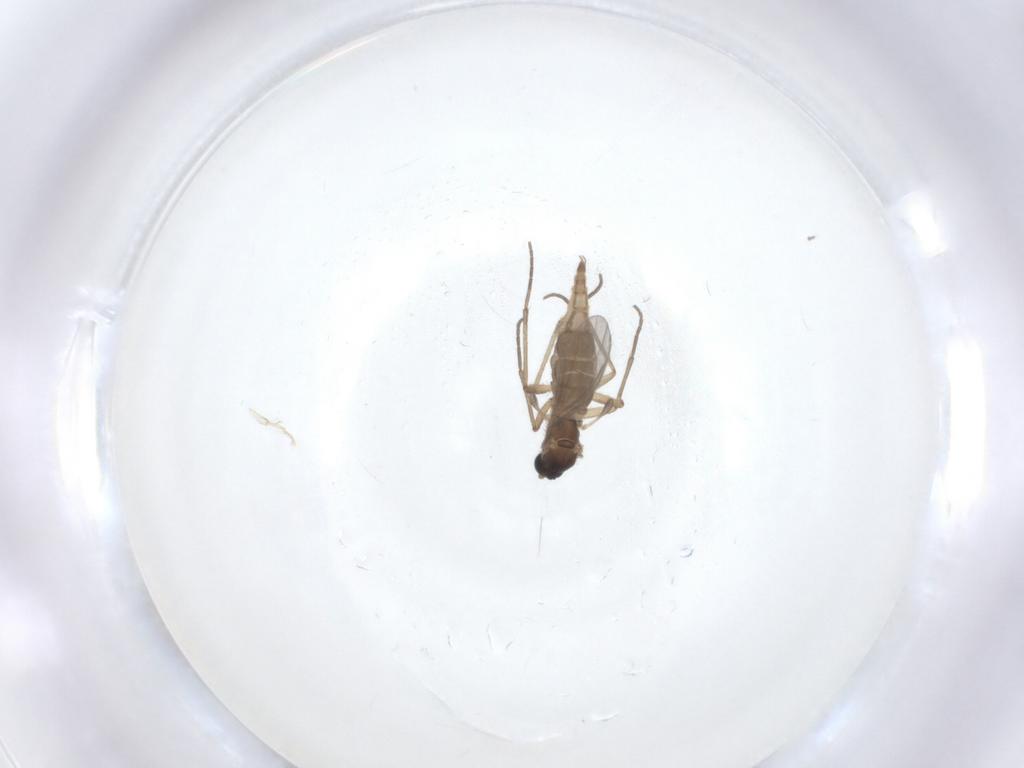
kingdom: Animalia
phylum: Arthropoda
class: Insecta
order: Diptera
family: Sciaridae
